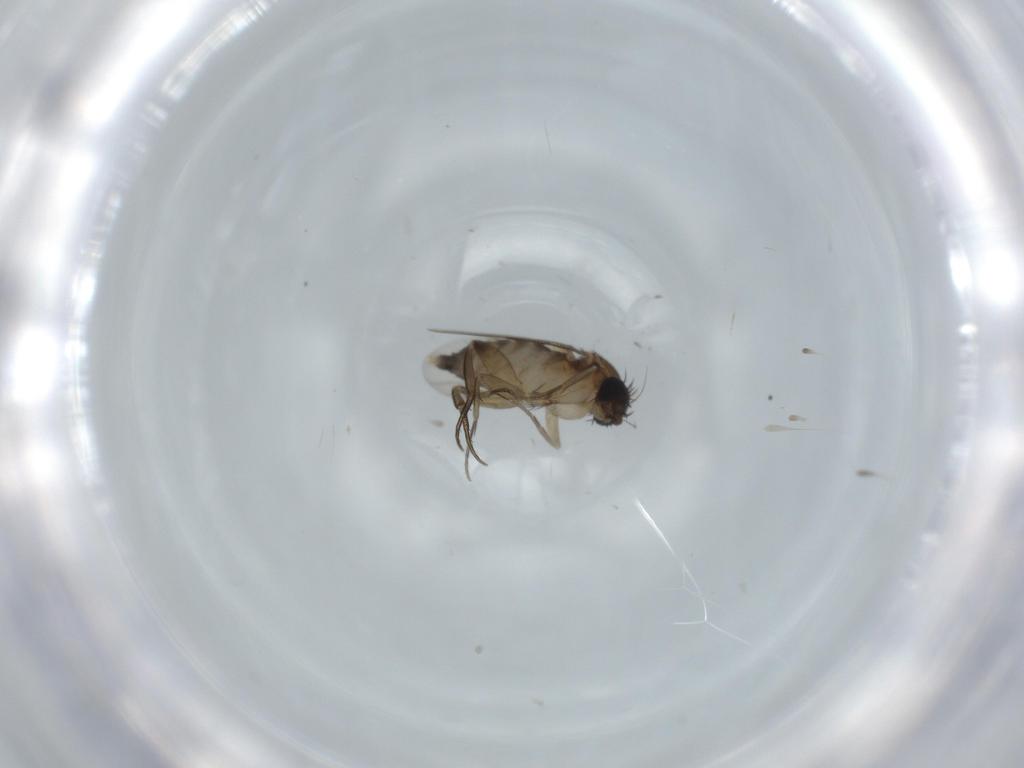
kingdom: Animalia
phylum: Arthropoda
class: Insecta
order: Diptera
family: Phoridae
